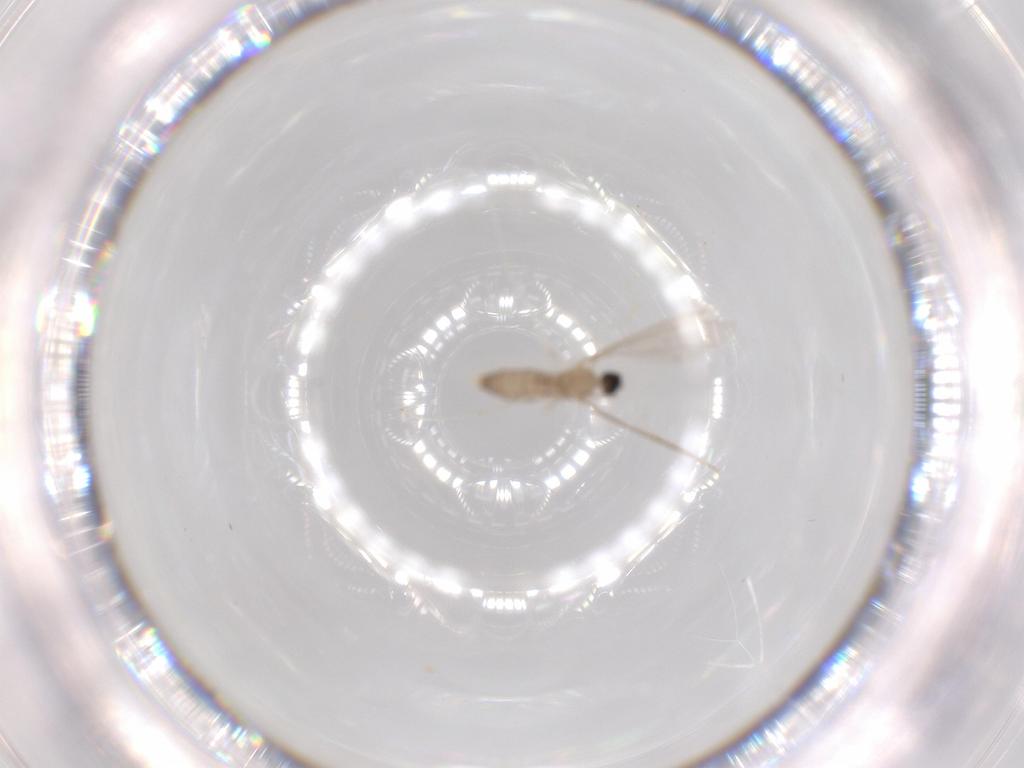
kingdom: Animalia
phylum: Arthropoda
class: Insecta
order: Diptera
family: Cecidomyiidae
